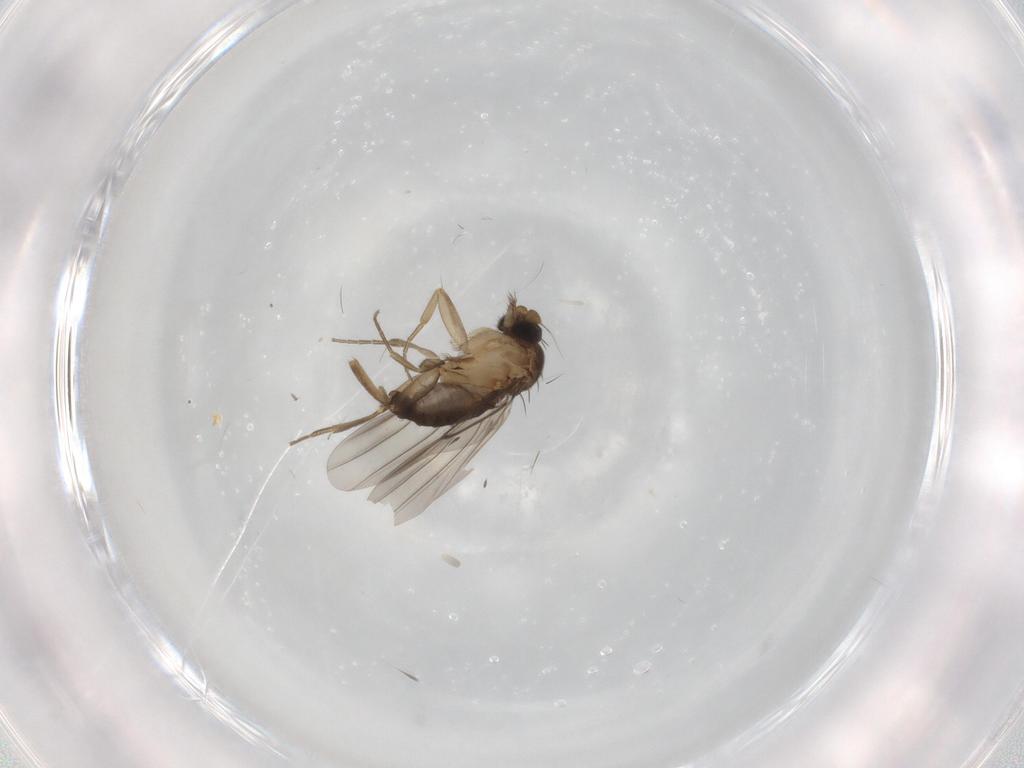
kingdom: Animalia
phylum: Arthropoda
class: Insecta
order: Diptera
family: Phoridae
